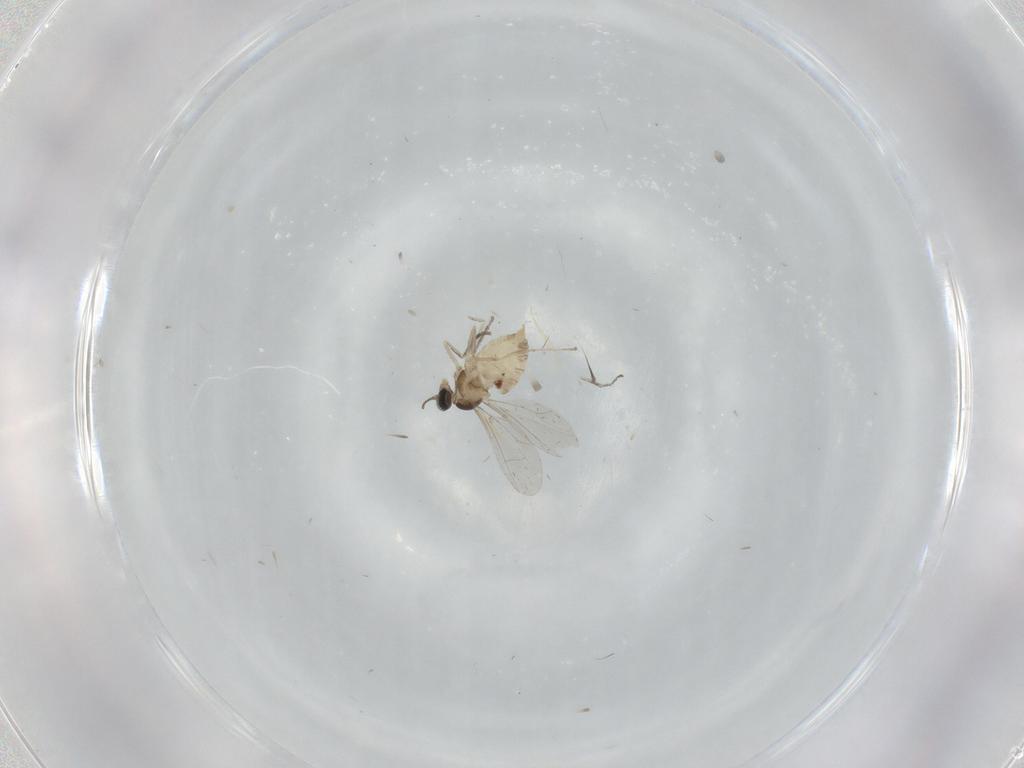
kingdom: Animalia
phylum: Arthropoda
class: Insecta
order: Diptera
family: Cecidomyiidae
